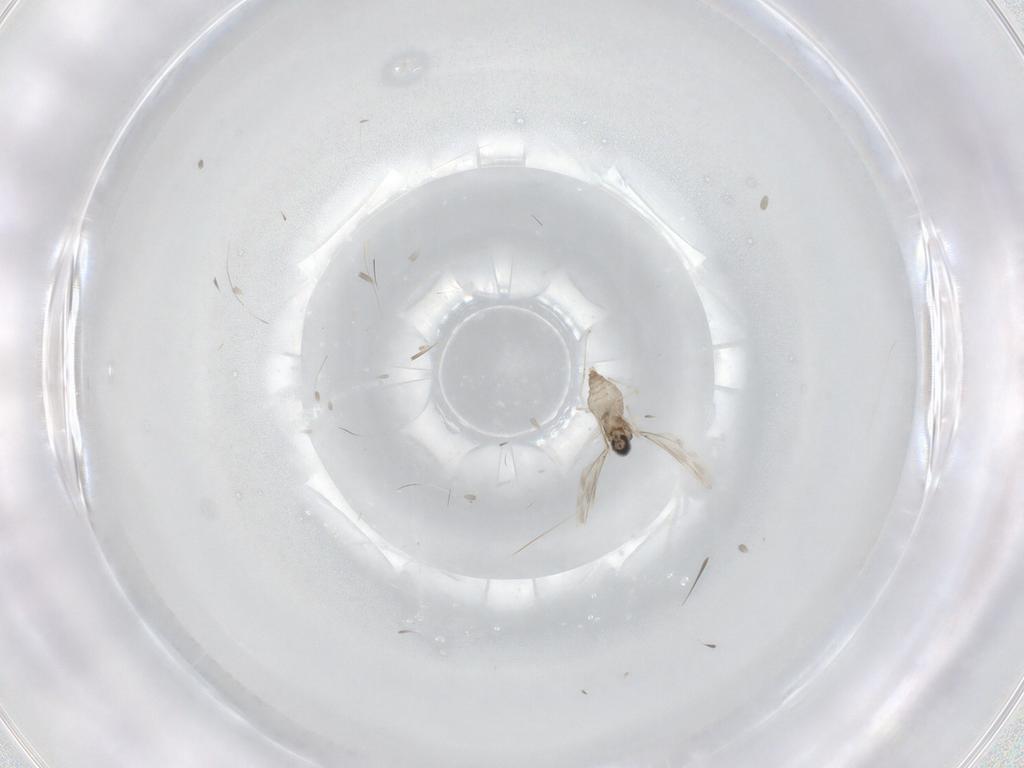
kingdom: Animalia
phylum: Arthropoda
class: Insecta
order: Diptera
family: Cecidomyiidae
